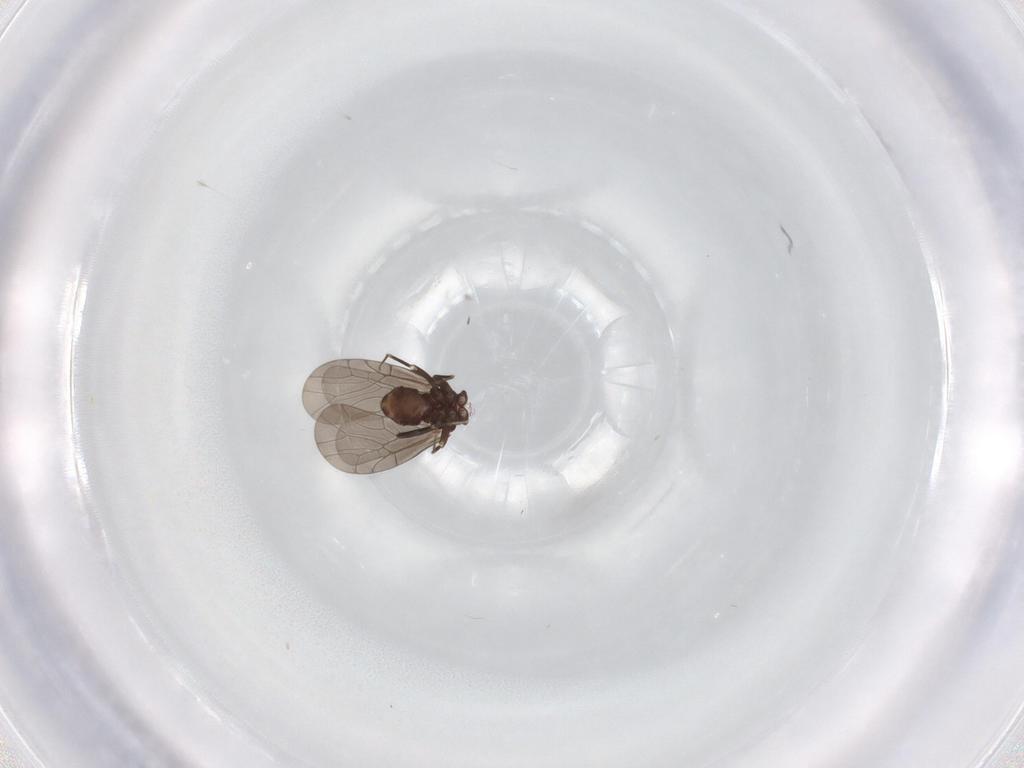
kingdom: Animalia
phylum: Arthropoda
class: Insecta
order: Psocodea
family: Lepidopsocidae
